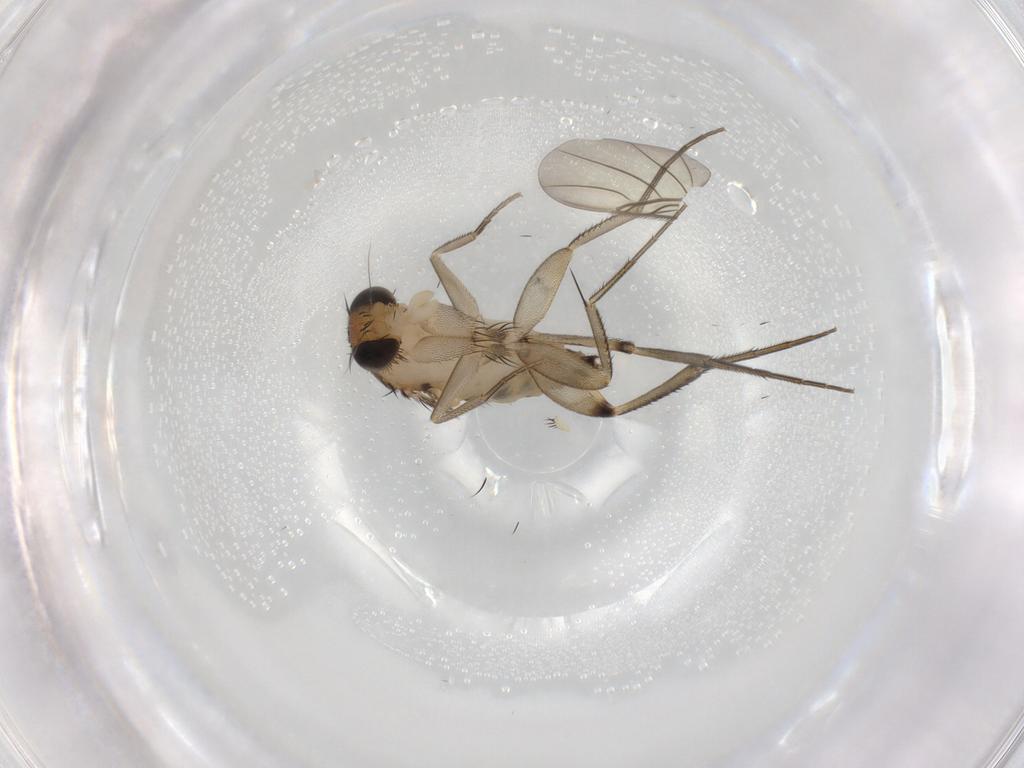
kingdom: Animalia
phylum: Arthropoda
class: Insecta
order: Diptera
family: Phoridae
